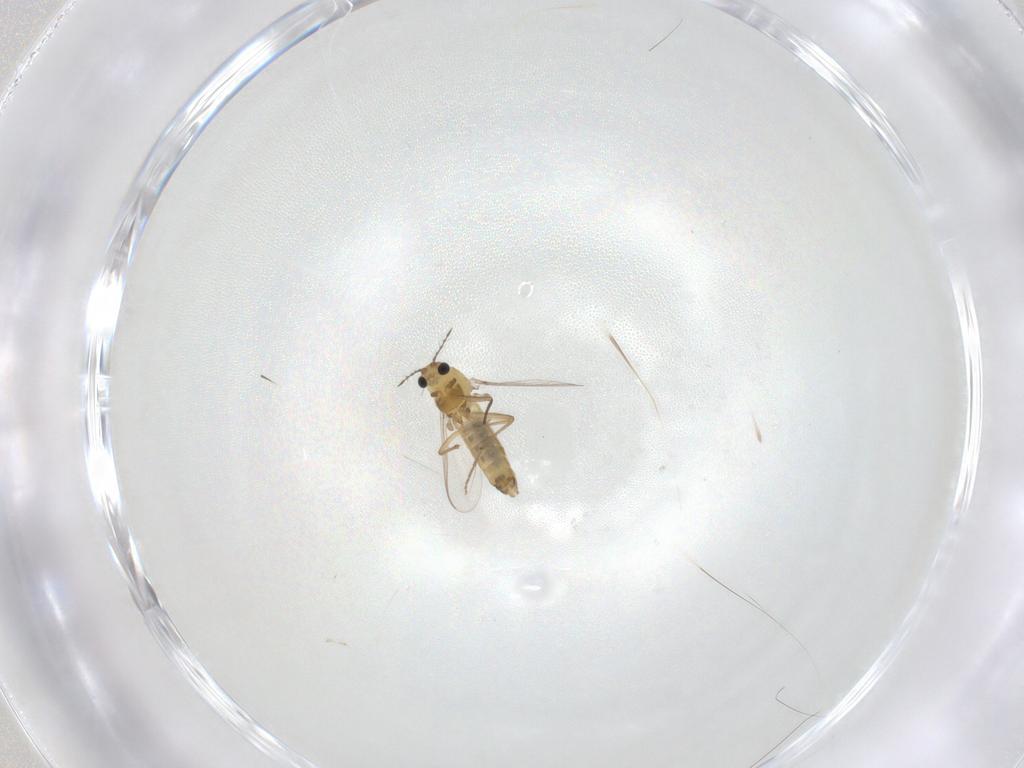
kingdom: Animalia
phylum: Arthropoda
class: Insecta
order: Diptera
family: Chironomidae
